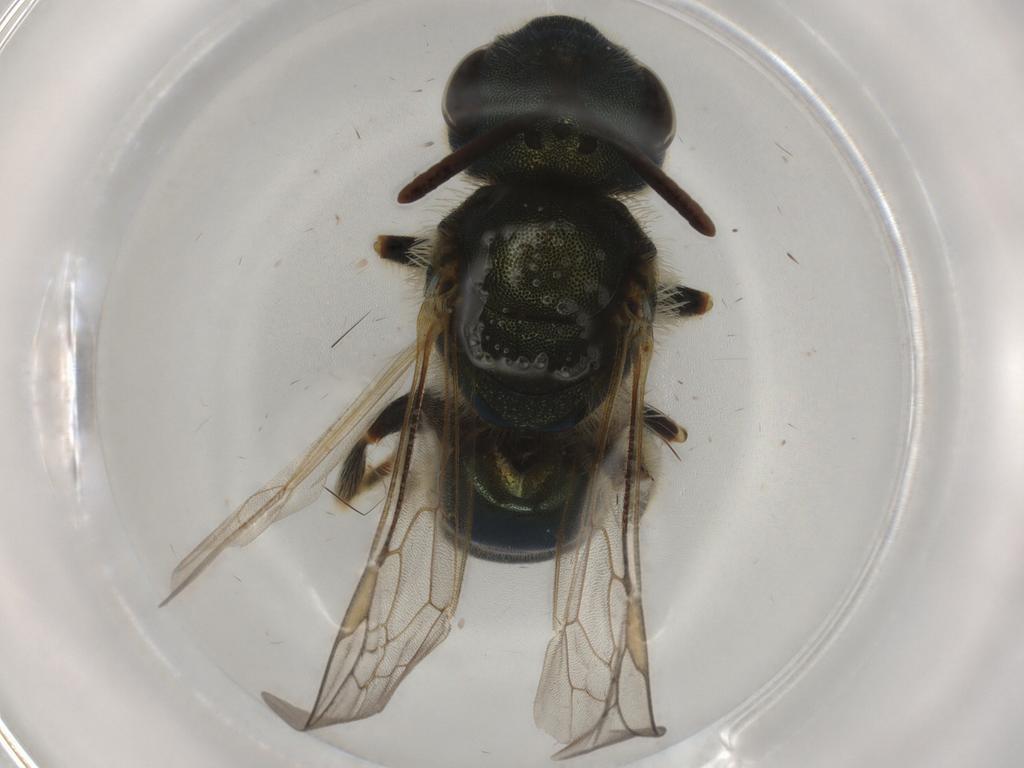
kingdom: Animalia
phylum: Arthropoda
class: Insecta
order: Hymenoptera
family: Halictidae
